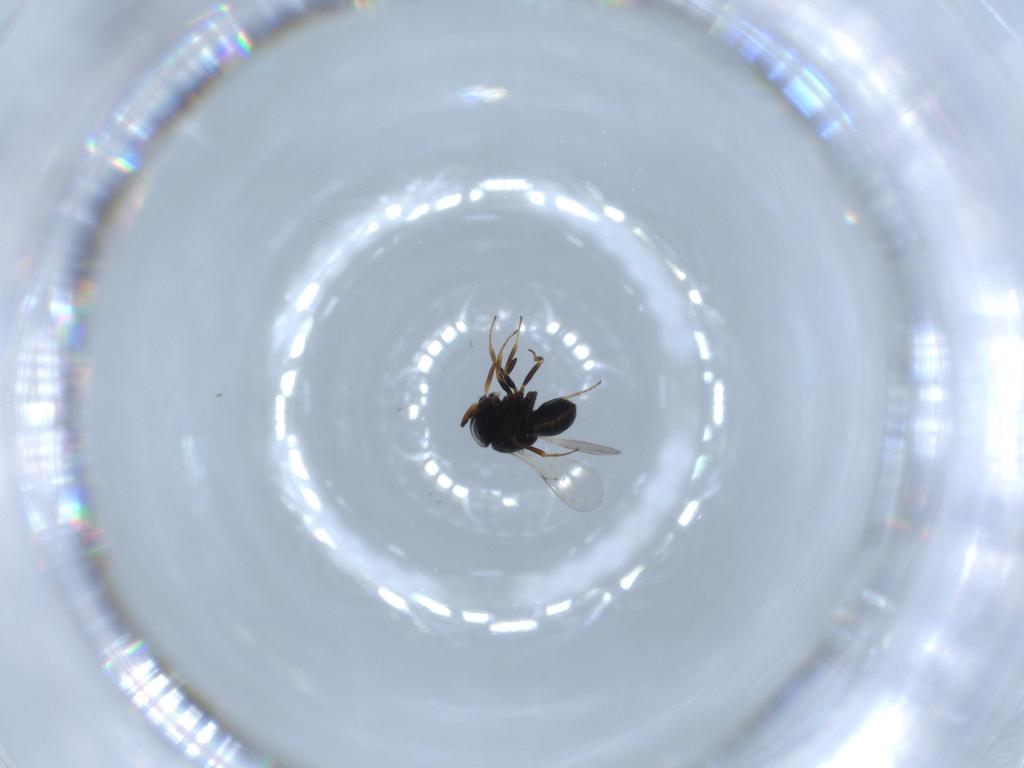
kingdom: Animalia
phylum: Arthropoda
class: Insecta
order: Hymenoptera
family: Scelionidae
